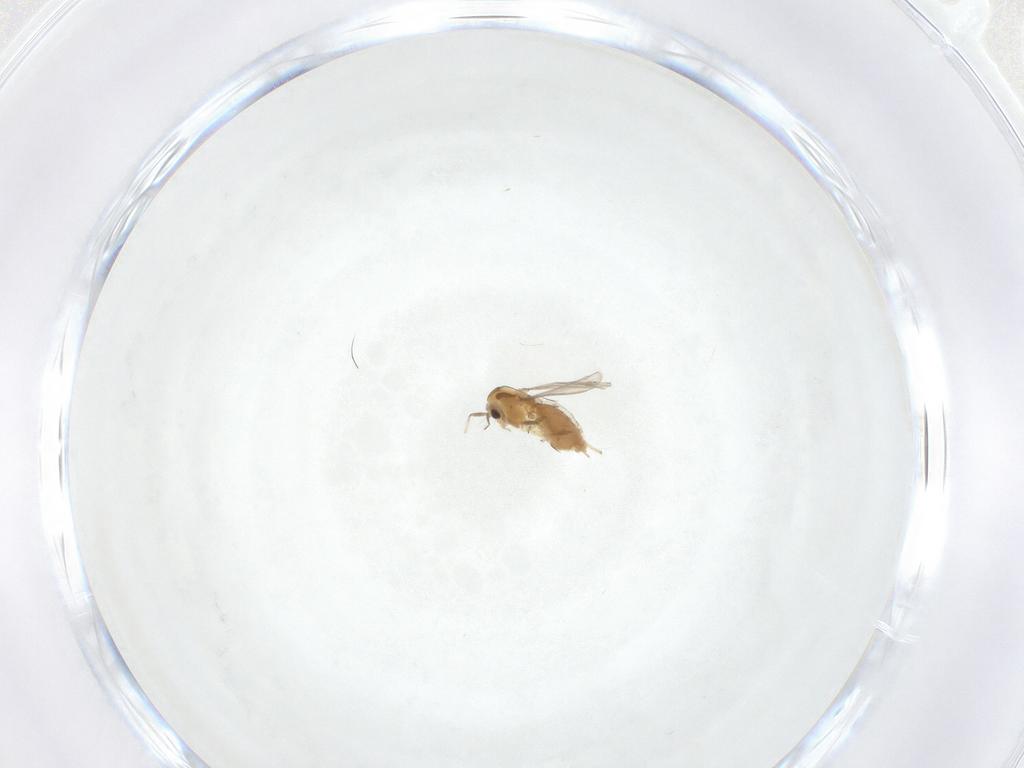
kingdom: Animalia
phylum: Arthropoda
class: Insecta
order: Diptera
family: Chironomidae
